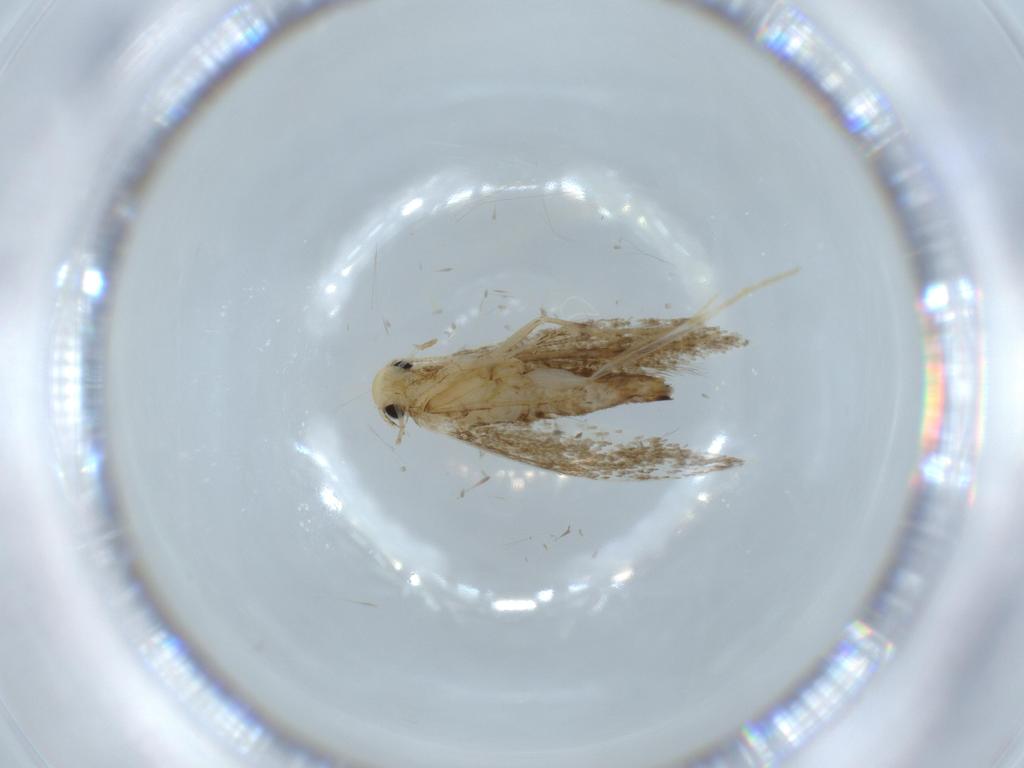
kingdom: Animalia
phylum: Arthropoda
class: Insecta
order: Lepidoptera
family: Tineidae
